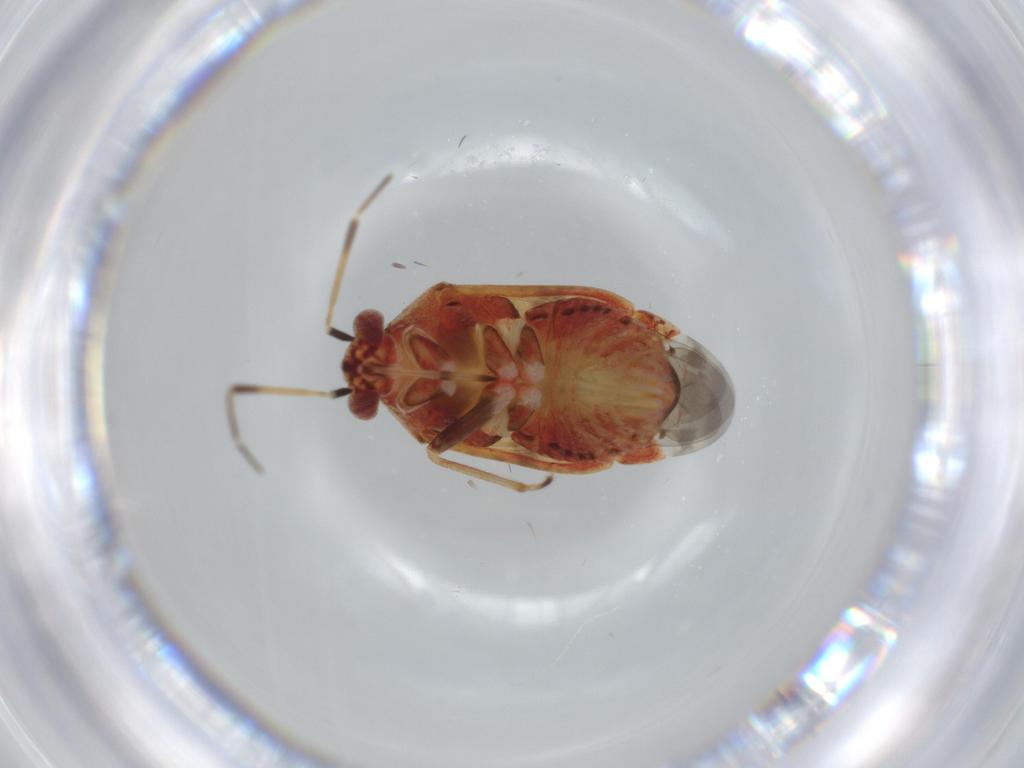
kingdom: Animalia
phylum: Arthropoda
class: Insecta
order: Hemiptera
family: Miridae
